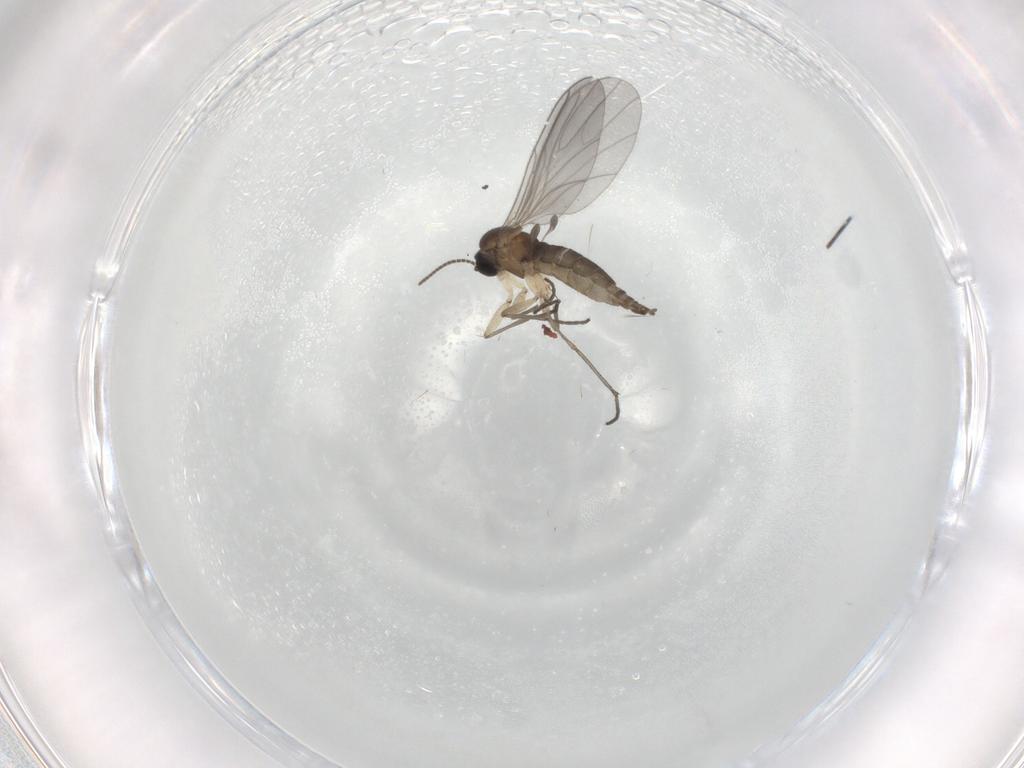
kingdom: Animalia
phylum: Arthropoda
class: Insecta
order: Diptera
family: Sciaridae
